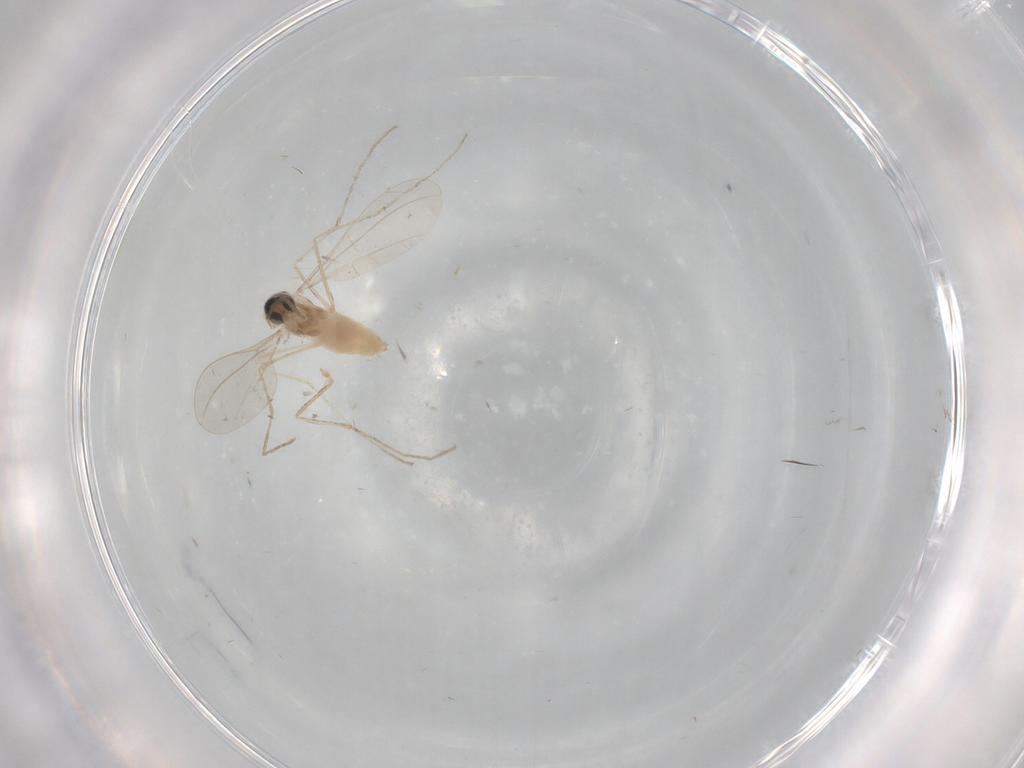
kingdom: Animalia
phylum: Arthropoda
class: Insecta
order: Diptera
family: Cecidomyiidae
